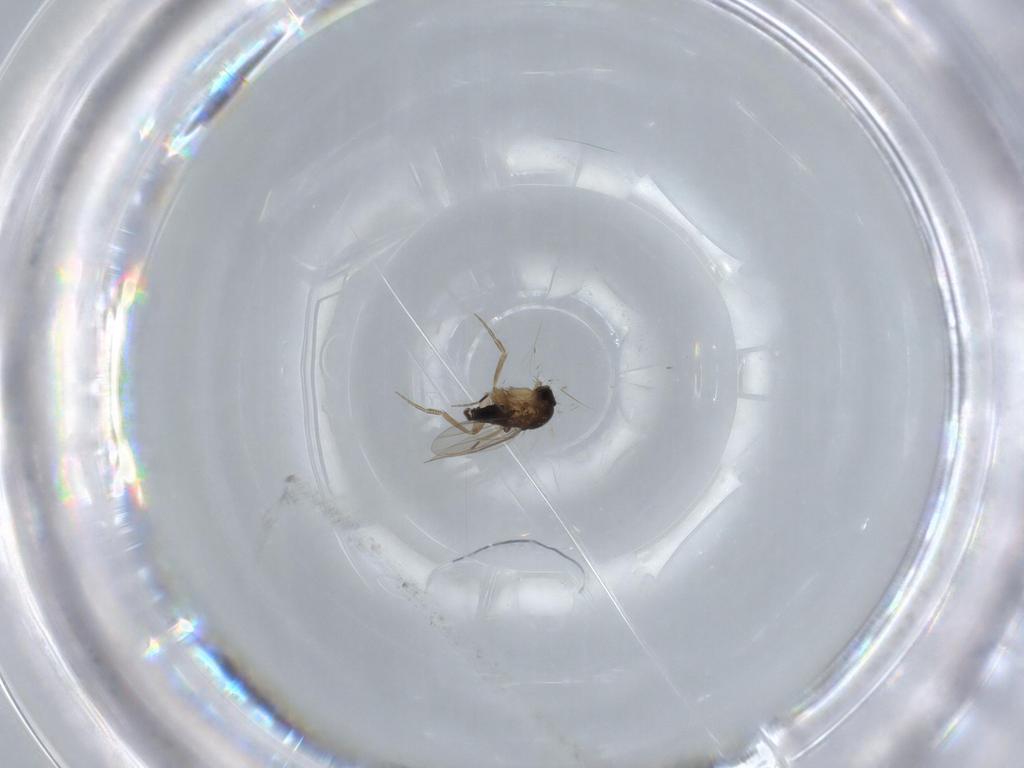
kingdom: Animalia
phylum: Arthropoda
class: Insecta
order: Diptera
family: Phoridae
